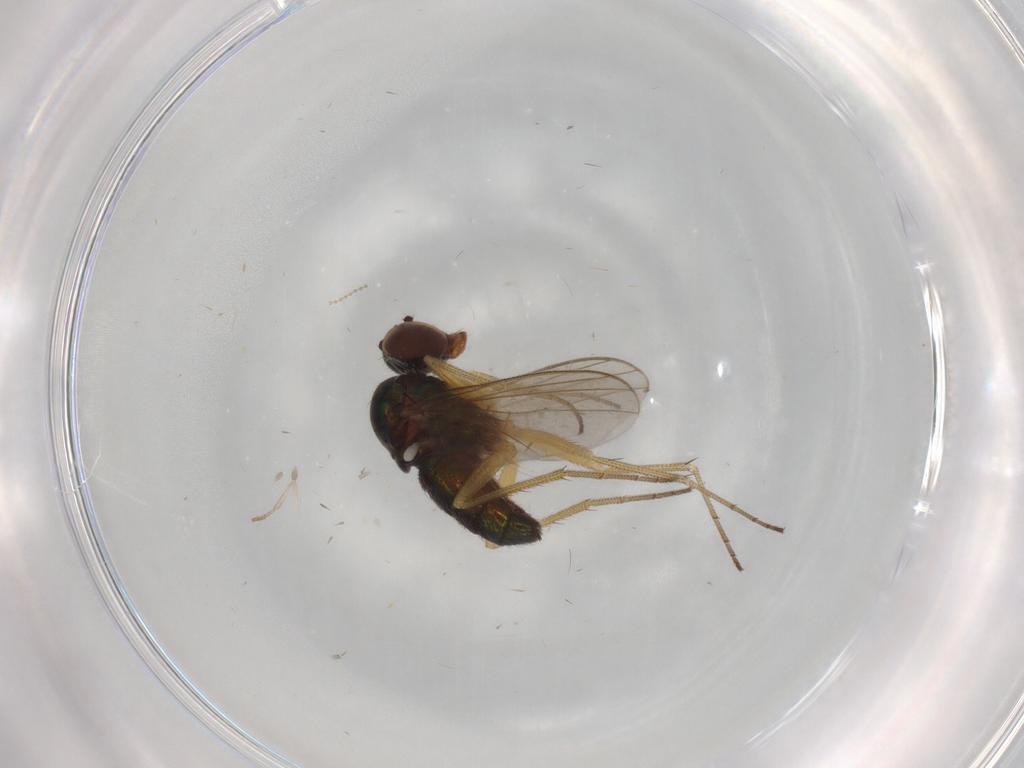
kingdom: Animalia
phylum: Arthropoda
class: Insecta
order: Diptera
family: Dolichopodidae
